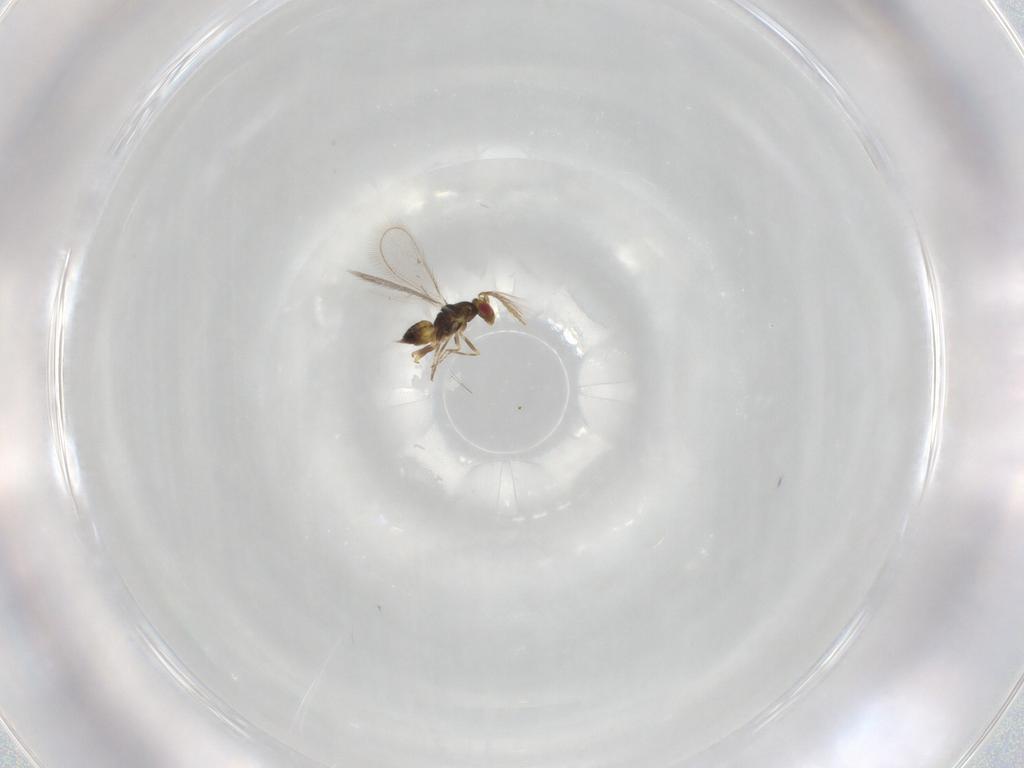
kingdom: Animalia
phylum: Arthropoda
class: Insecta
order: Hymenoptera
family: Eulophidae
